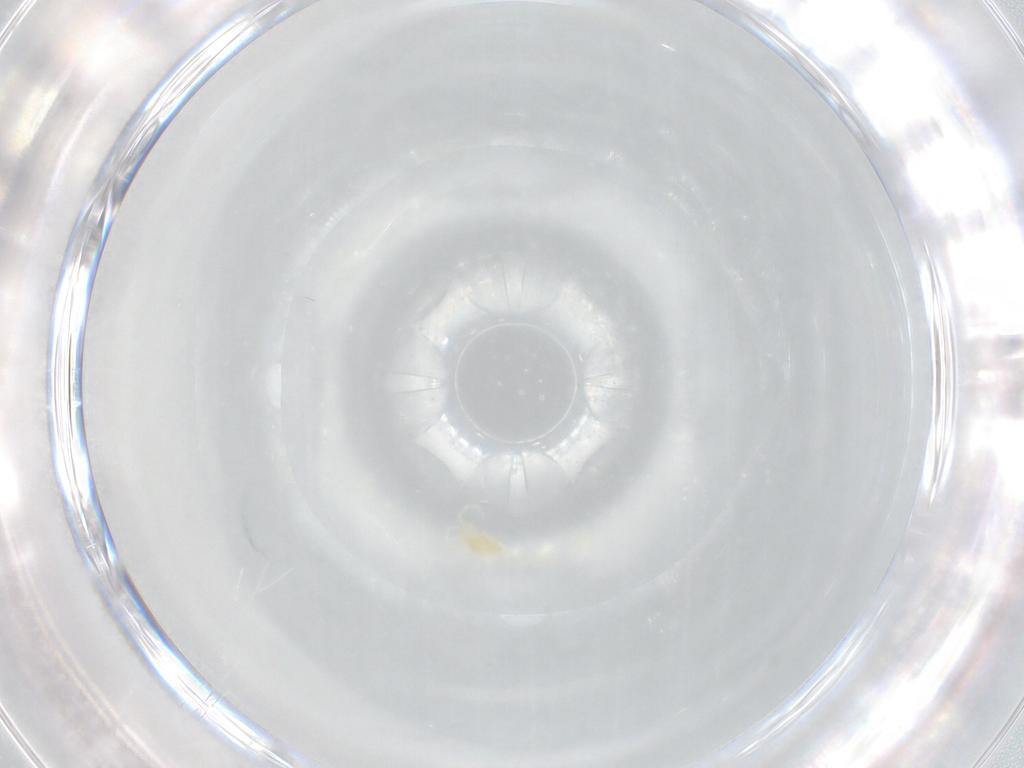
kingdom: Animalia
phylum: Arthropoda
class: Arachnida
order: Trombidiformes
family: Eupodidae
